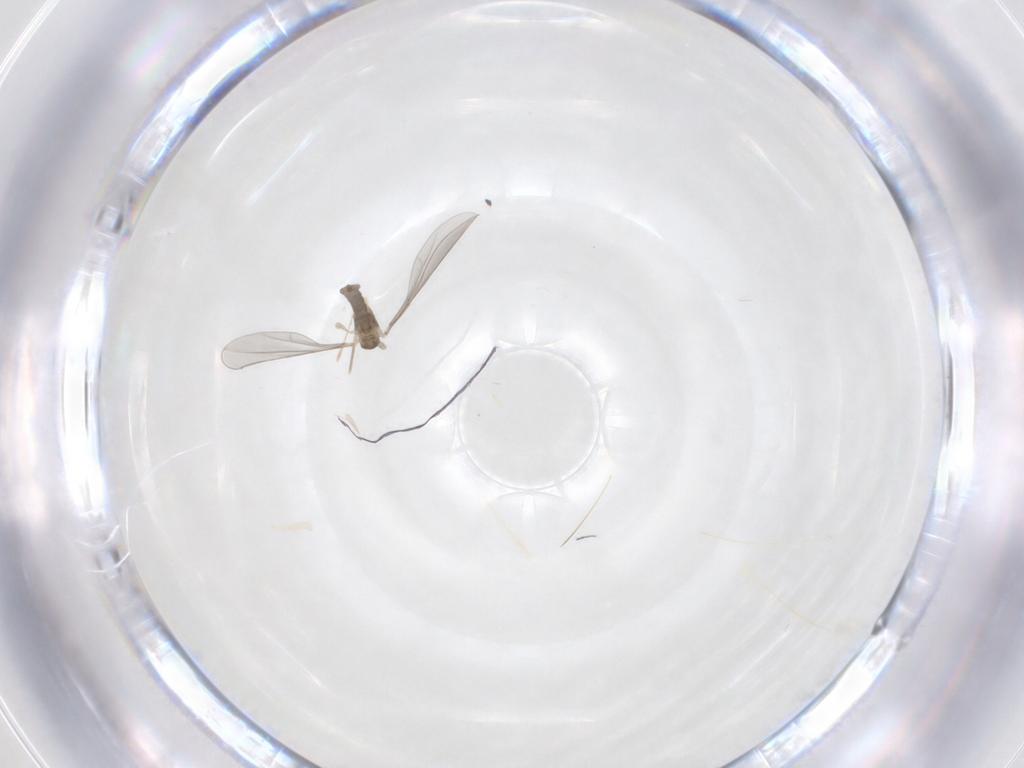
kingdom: Animalia
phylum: Arthropoda
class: Insecta
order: Diptera
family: Cecidomyiidae
